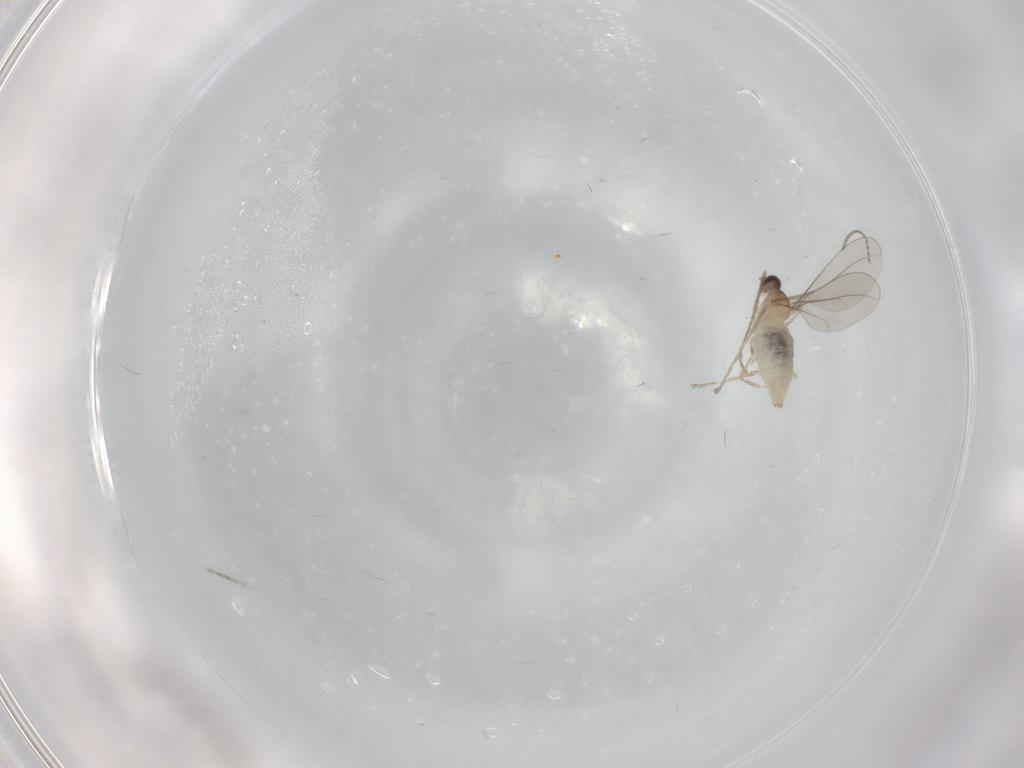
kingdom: Animalia
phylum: Arthropoda
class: Insecta
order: Diptera
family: Cecidomyiidae
